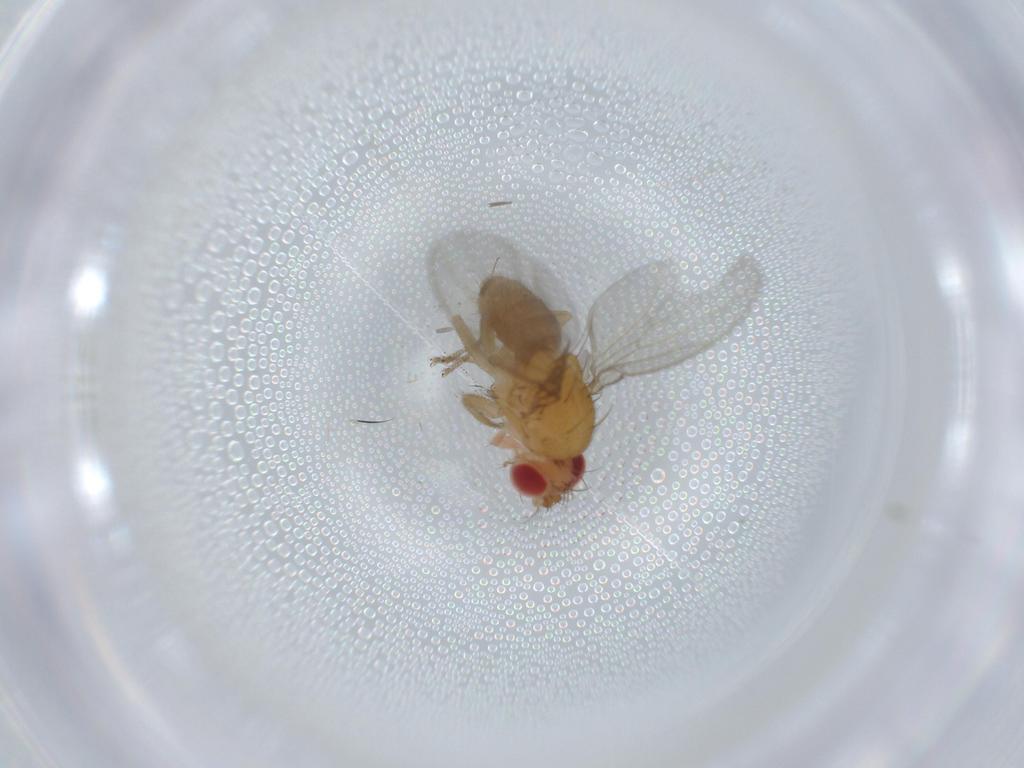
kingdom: Animalia
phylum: Arthropoda
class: Insecta
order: Diptera
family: Drosophilidae
